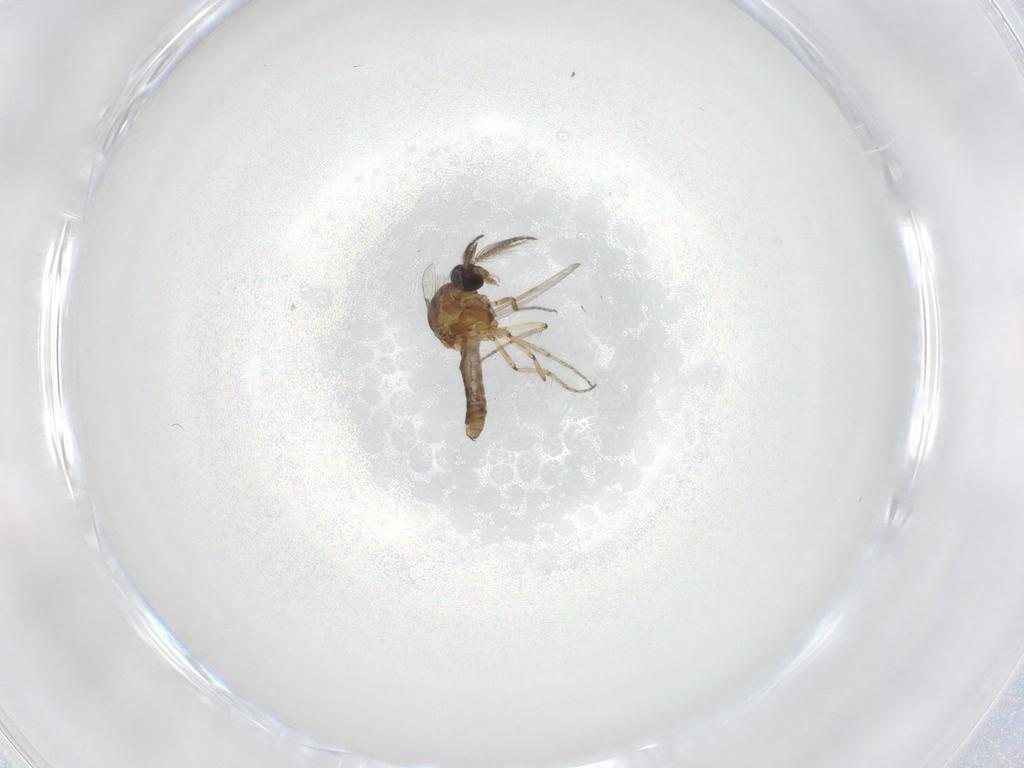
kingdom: Animalia
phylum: Arthropoda
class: Insecta
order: Diptera
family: Ceratopogonidae
